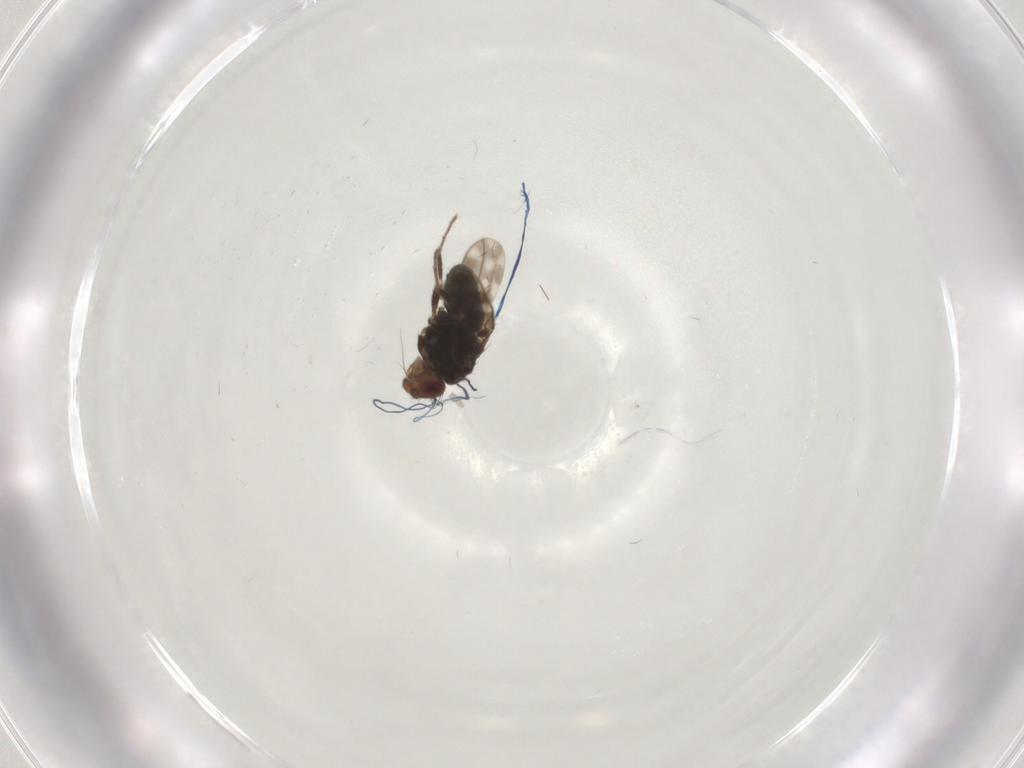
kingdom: Animalia
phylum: Arthropoda
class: Insecta
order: Diptera
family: Sphaeroceridae
